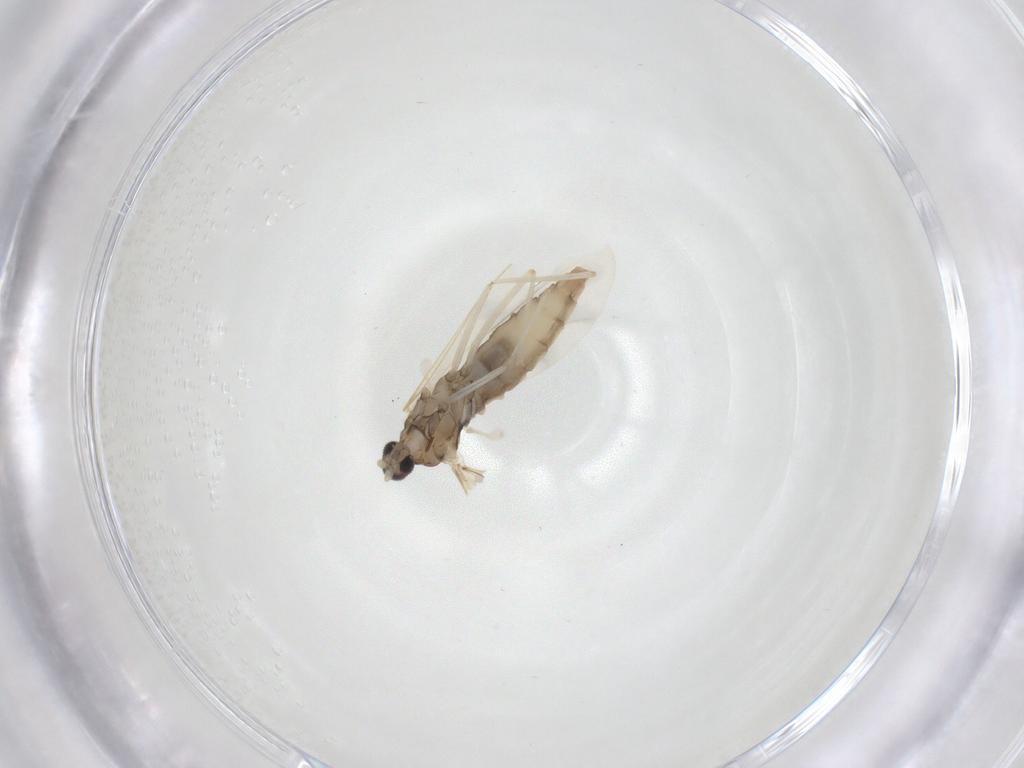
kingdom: Animalia
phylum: Arthropoda
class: Insecta
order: Diptera
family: Cecidomyiidae
